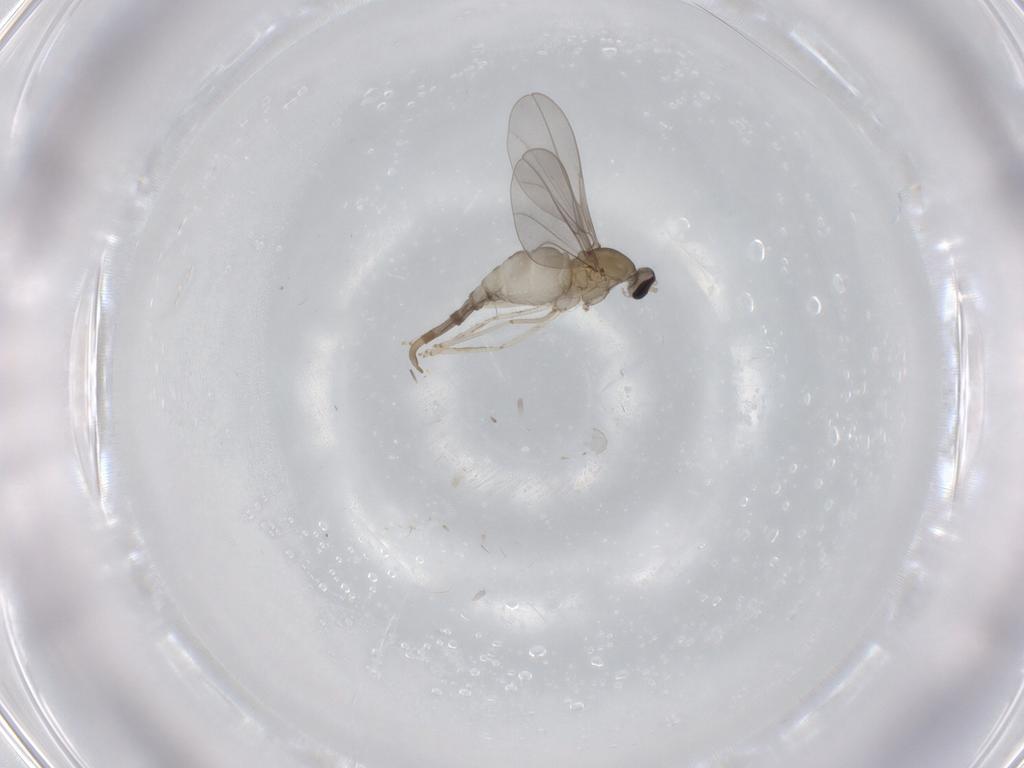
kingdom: Animalia
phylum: Arthropoda
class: Insecta
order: Diptera
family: Cecidomyiidae
